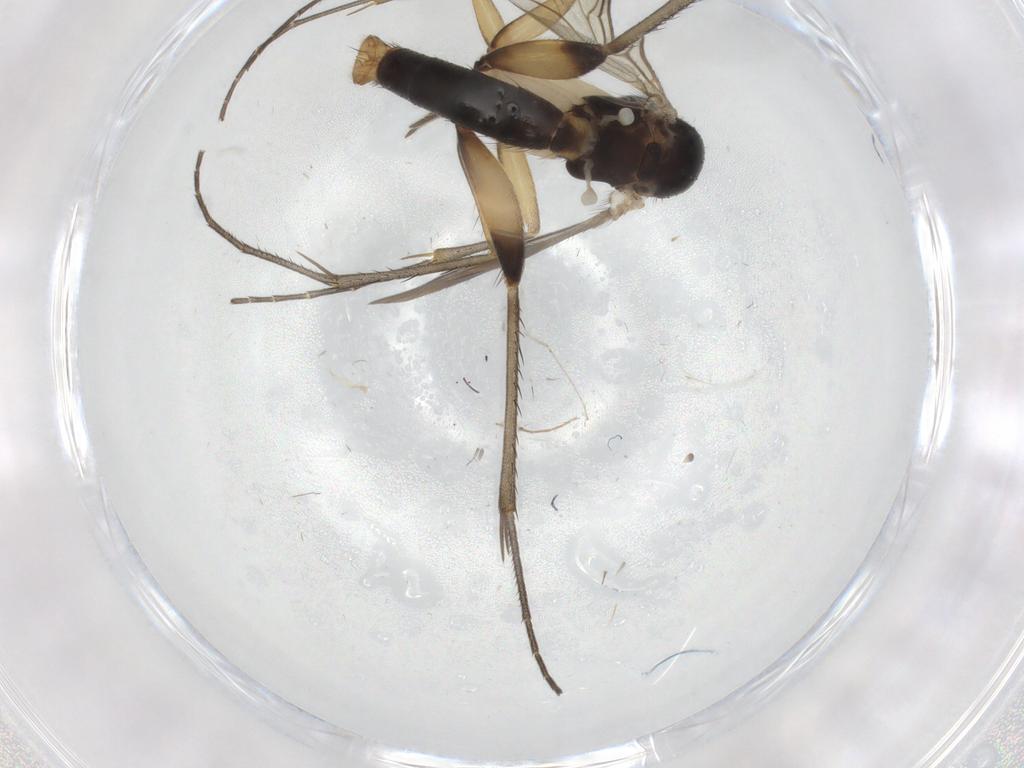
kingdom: Animalia
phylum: Arthropoda
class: Insecta
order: Diptera
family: Mycetophilidae
